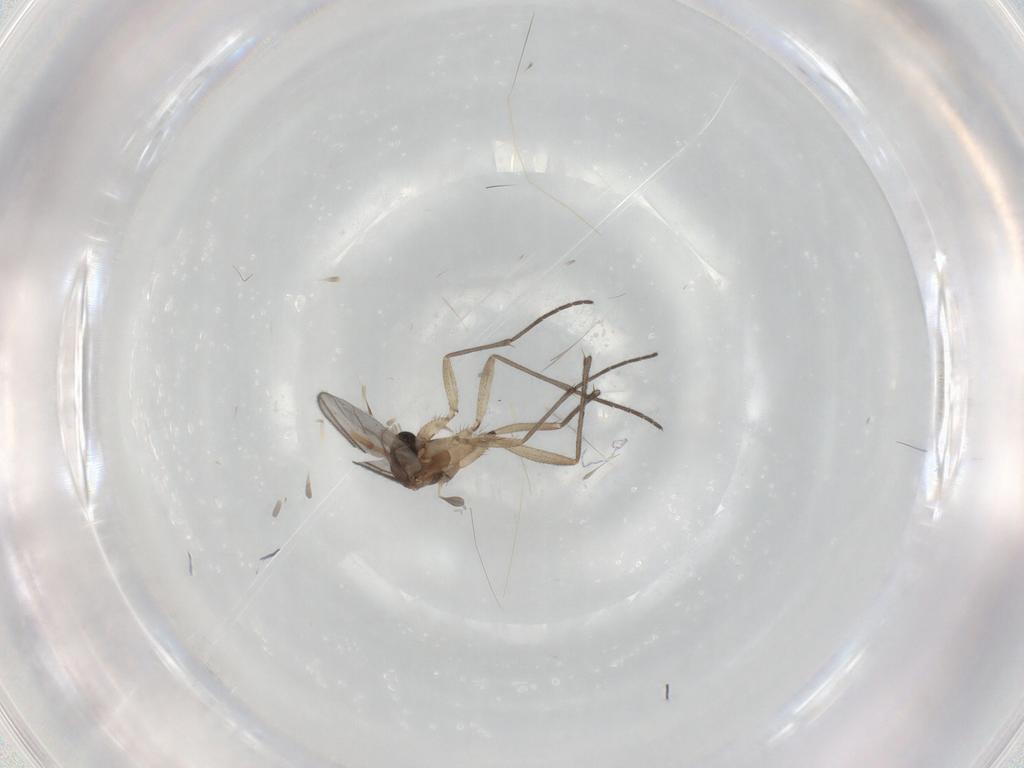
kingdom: Animalia
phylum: Arthropoda
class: Insecta
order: Diptera
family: Sciaridae
